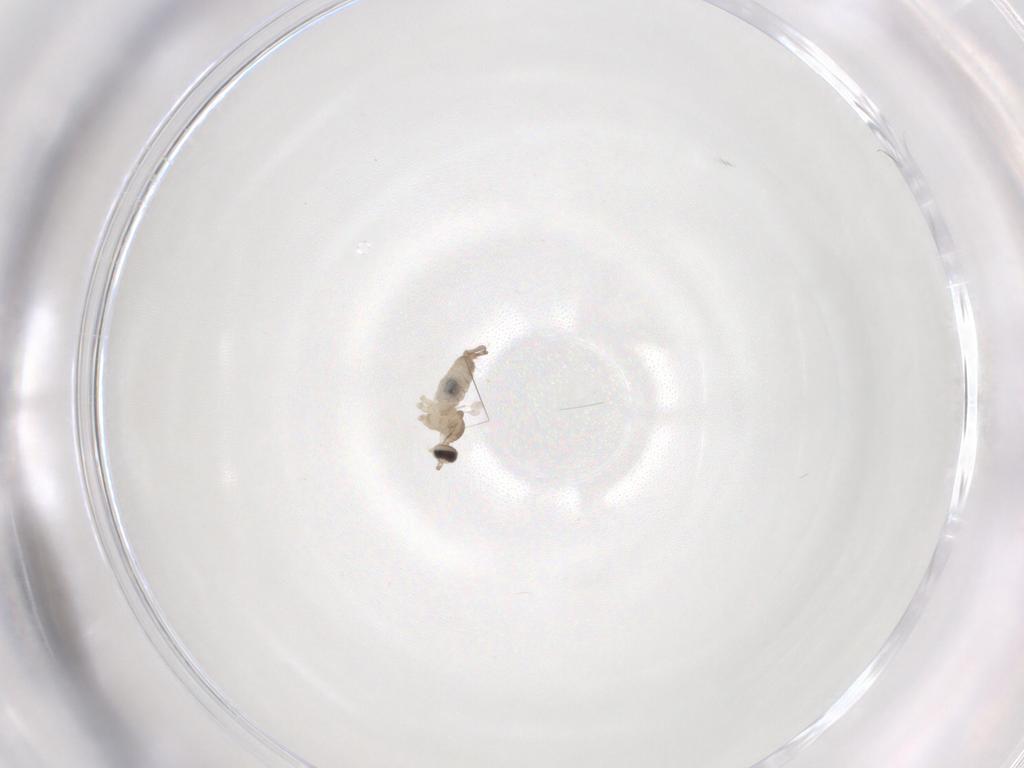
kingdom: Animalia
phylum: Arthropoda
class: Insecta
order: Diptera
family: Cecidomyiidae
